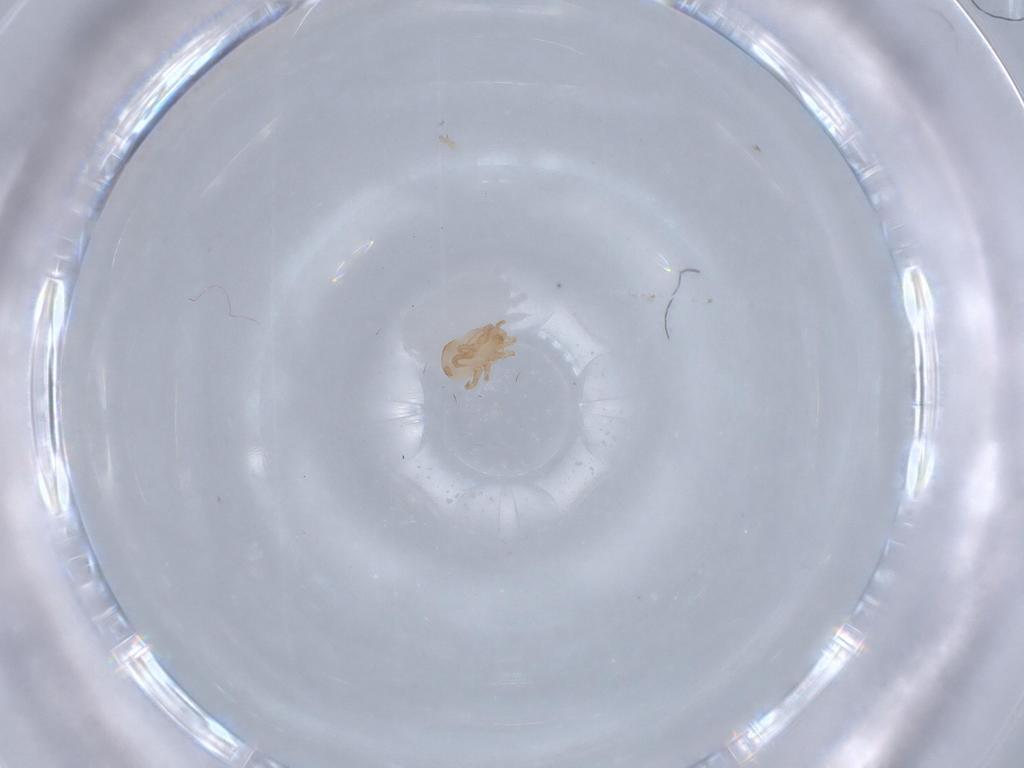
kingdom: Animalia
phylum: Arthropoda
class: Arachnida
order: Mesostigmata
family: Halolaelapidae
